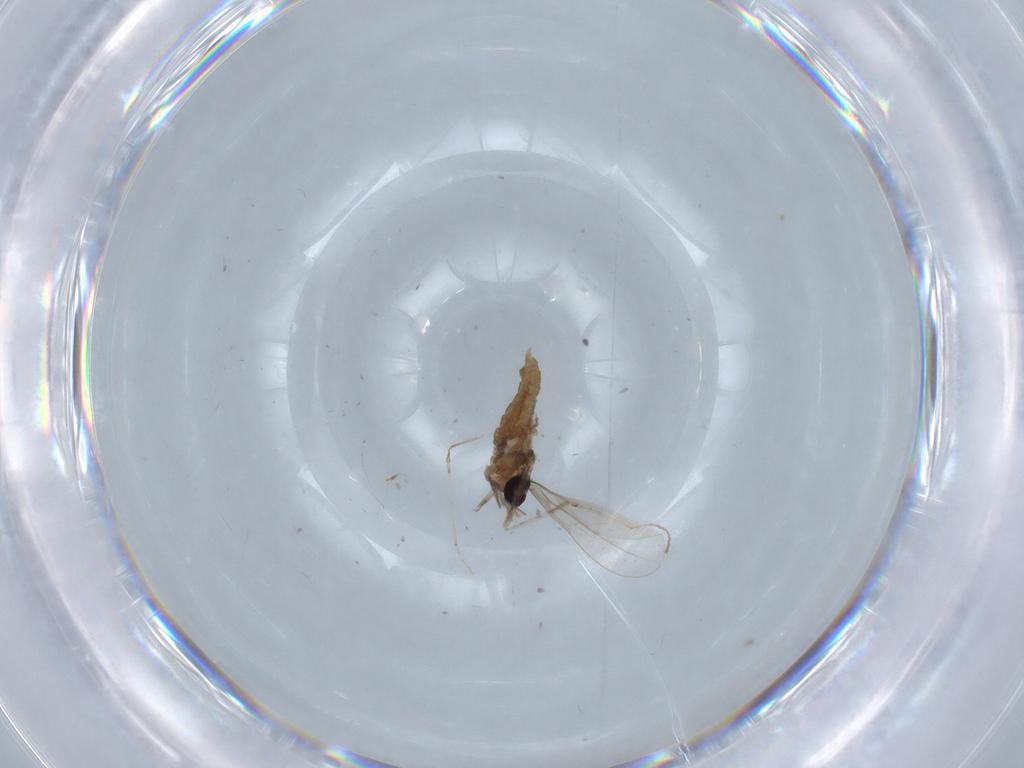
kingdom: Animalia
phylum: Arthropoda
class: Insecta
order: Diptera
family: Cecidomyiidae
